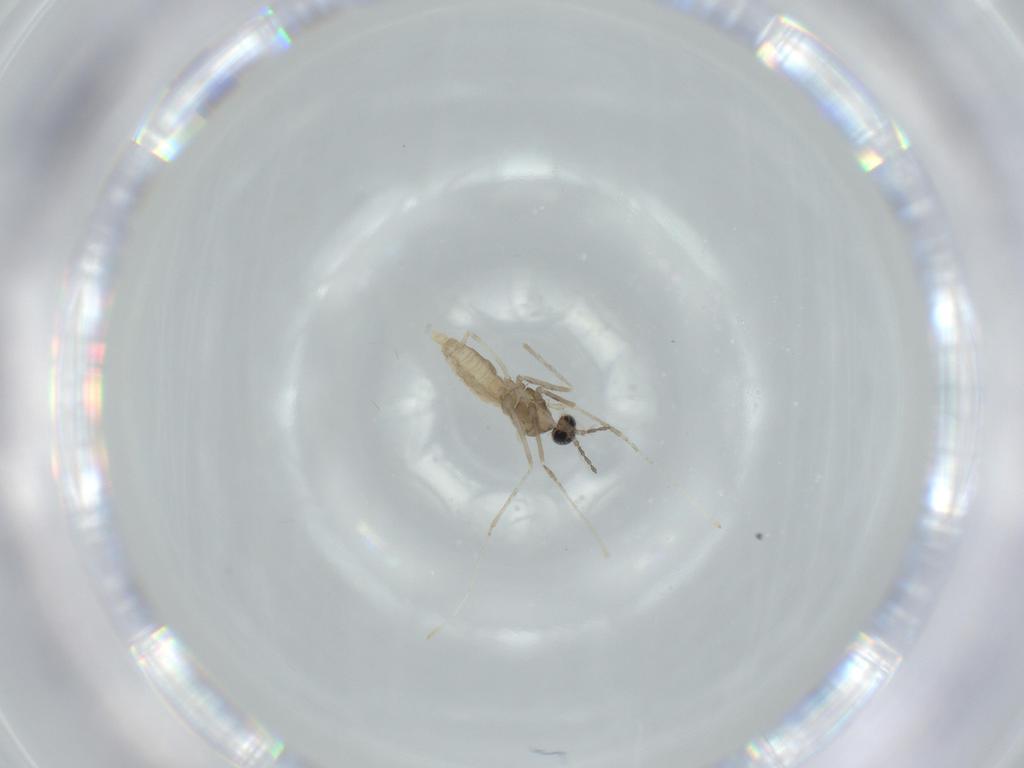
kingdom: Animalia
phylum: Arthropoda
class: Insecta
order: Diptera
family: Cecidomyiidae
